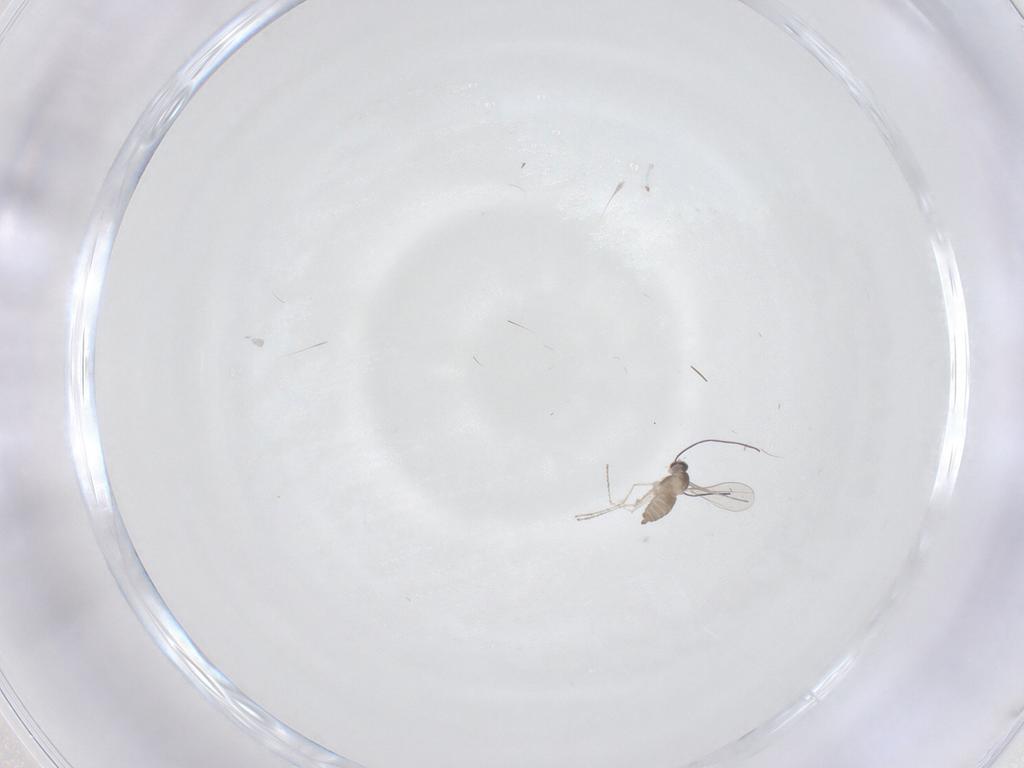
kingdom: Animalia
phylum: Arthropoda
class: Insecta
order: Diptera
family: Cecidomyiidae
